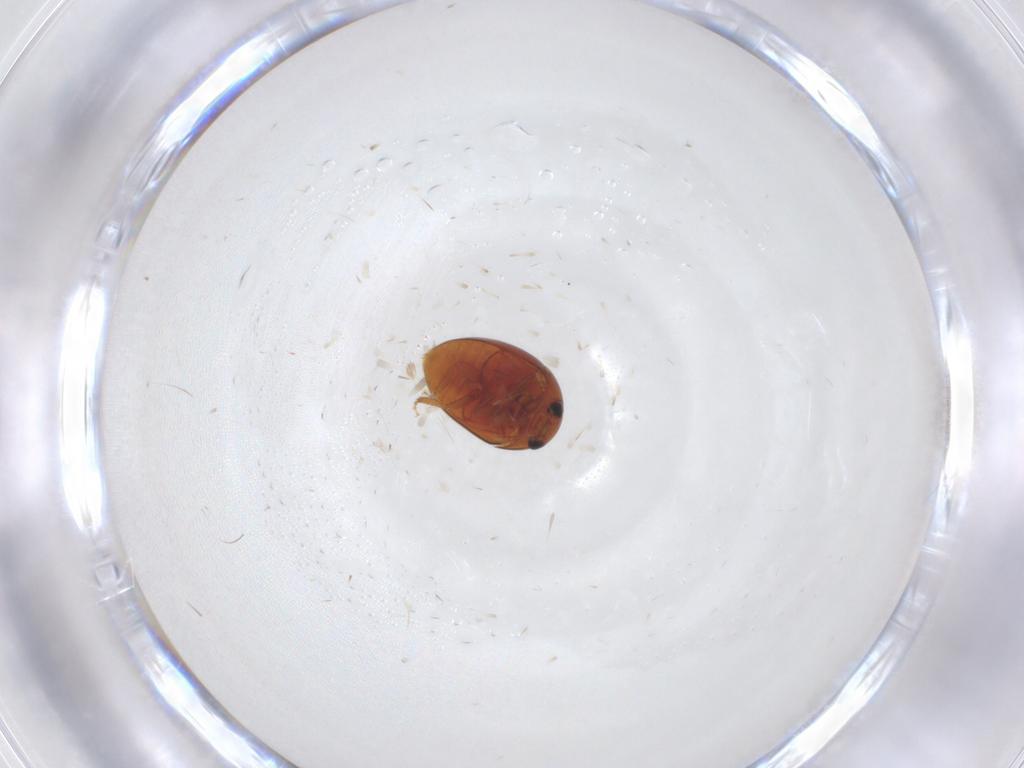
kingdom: Animalia
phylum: Arthropoda
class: Insecta
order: Coleoptera
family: Phalacridae
